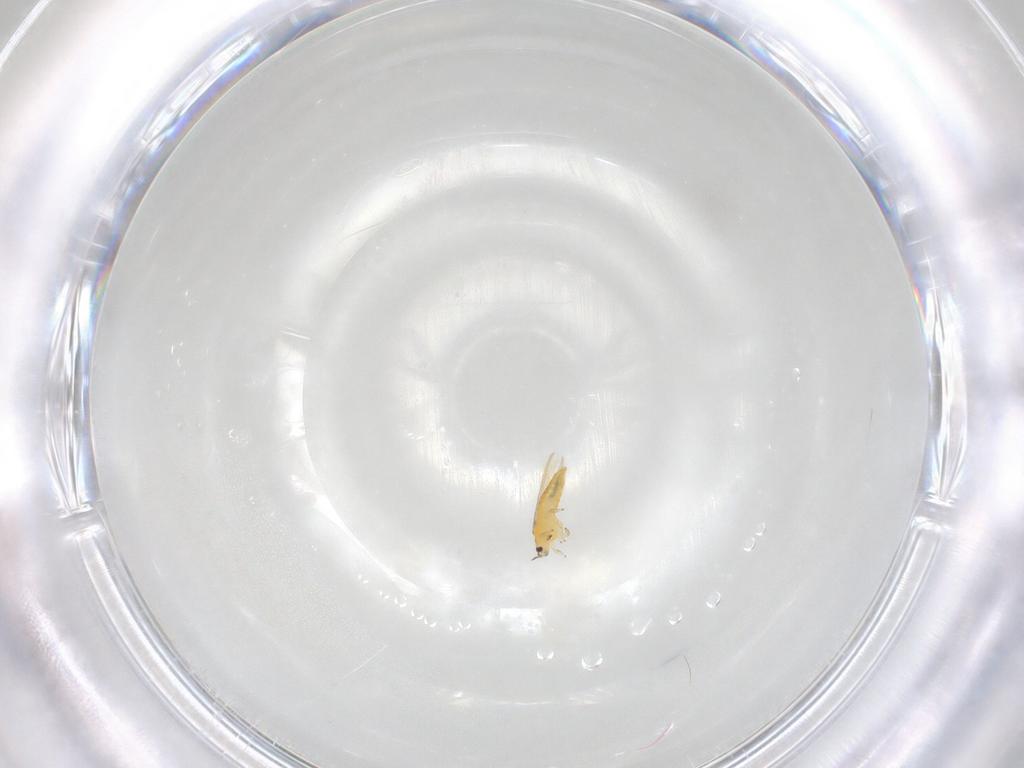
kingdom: Animalia
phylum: Arthropoda
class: Insecta
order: Thysanoptera
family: Thripidae
